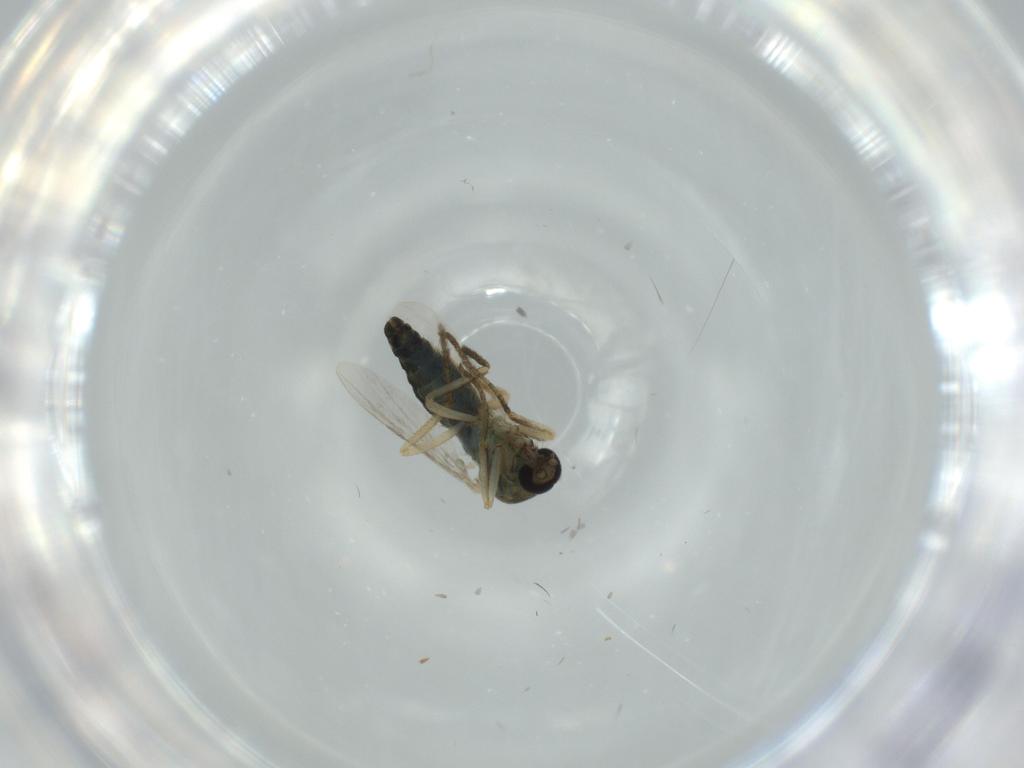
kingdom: Animalia
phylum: Arthropoda
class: Insecta
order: Diptera
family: Ceratopogonidae
